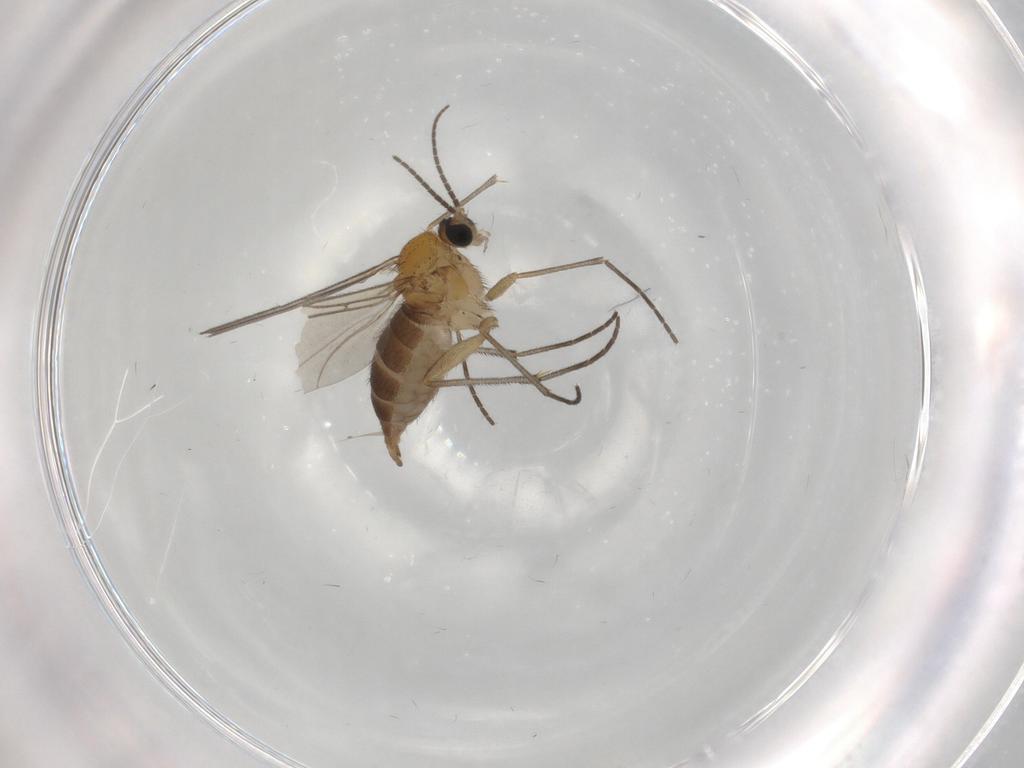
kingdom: Animalia
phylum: Arthropoda
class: Insecta
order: Diptera
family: Sciaridae
